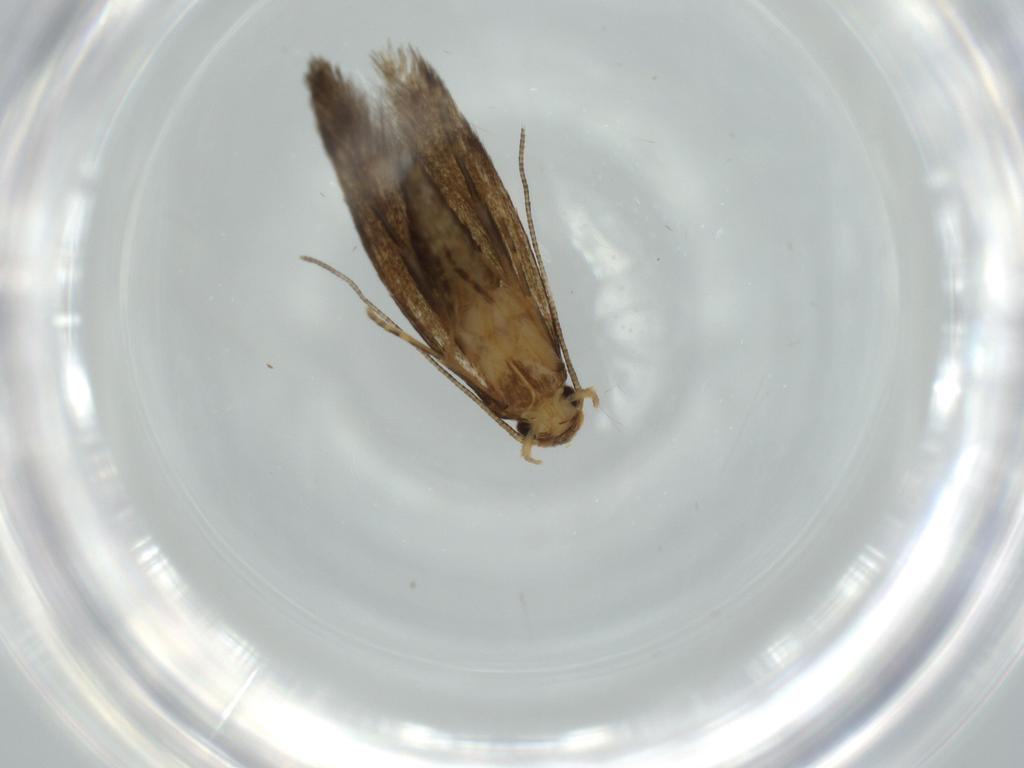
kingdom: Animalia
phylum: Arthropoda
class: Insecta
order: Lepidoptera
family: Tineidae
